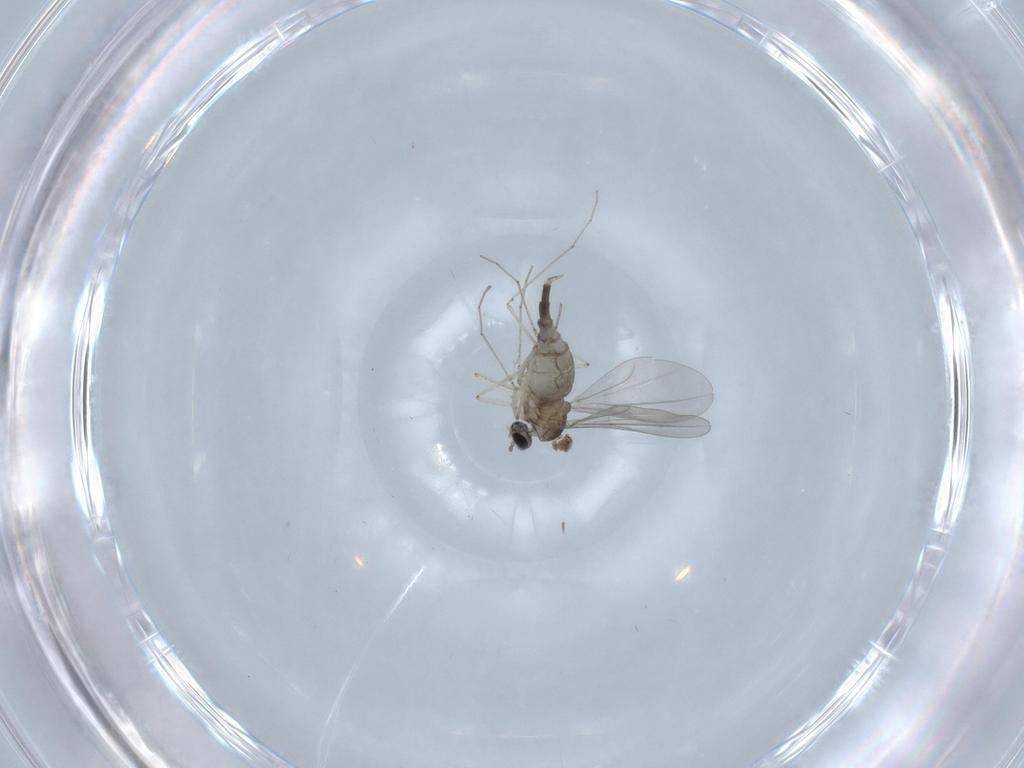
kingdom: Animalia
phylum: Arthropoda
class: Insecta
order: Diptera
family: Cecidomyiidae
